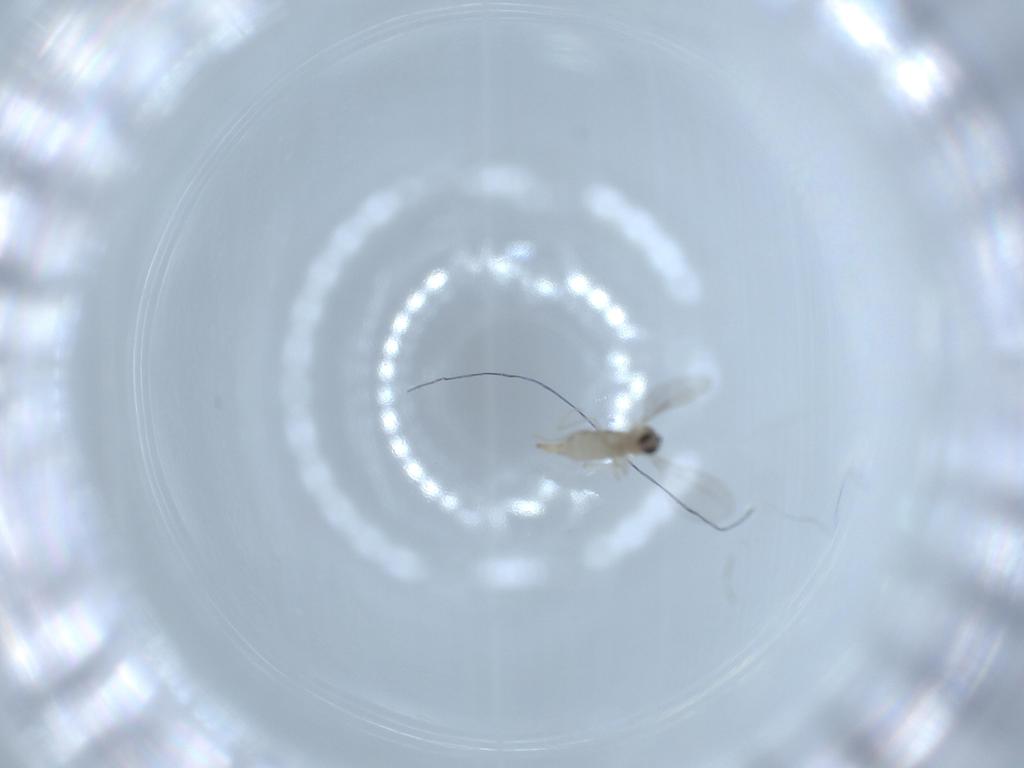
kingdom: Animalia
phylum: Arthropoda
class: Insecta
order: Diptera
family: Cecidomyiidae
